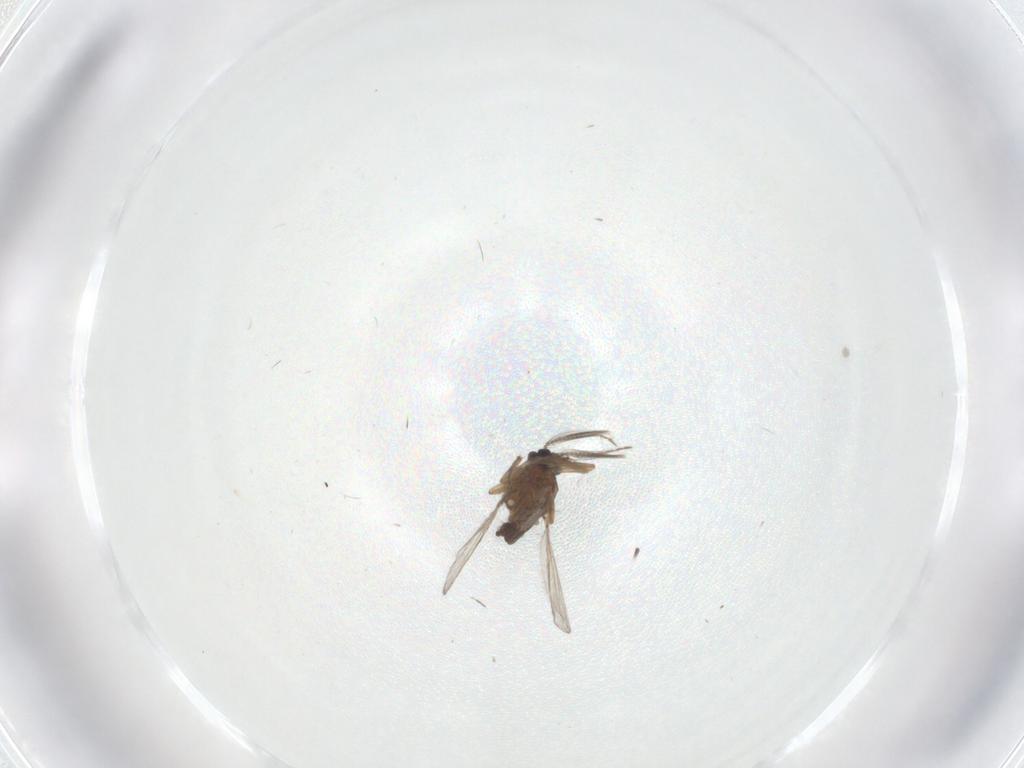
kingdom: Animalia
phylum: Arthropoda
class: Insecta
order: Diptera
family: Ceratopogonidae
